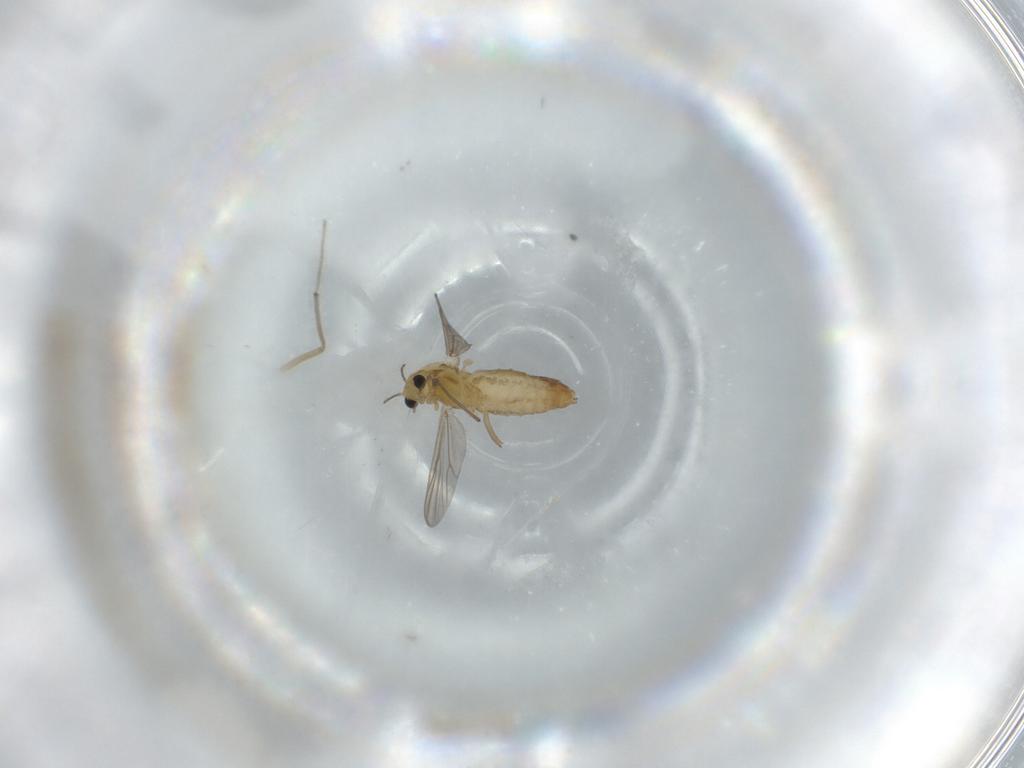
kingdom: Animalia
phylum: Arthropoda
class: Insecta
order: Diptera
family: Chironomidae
